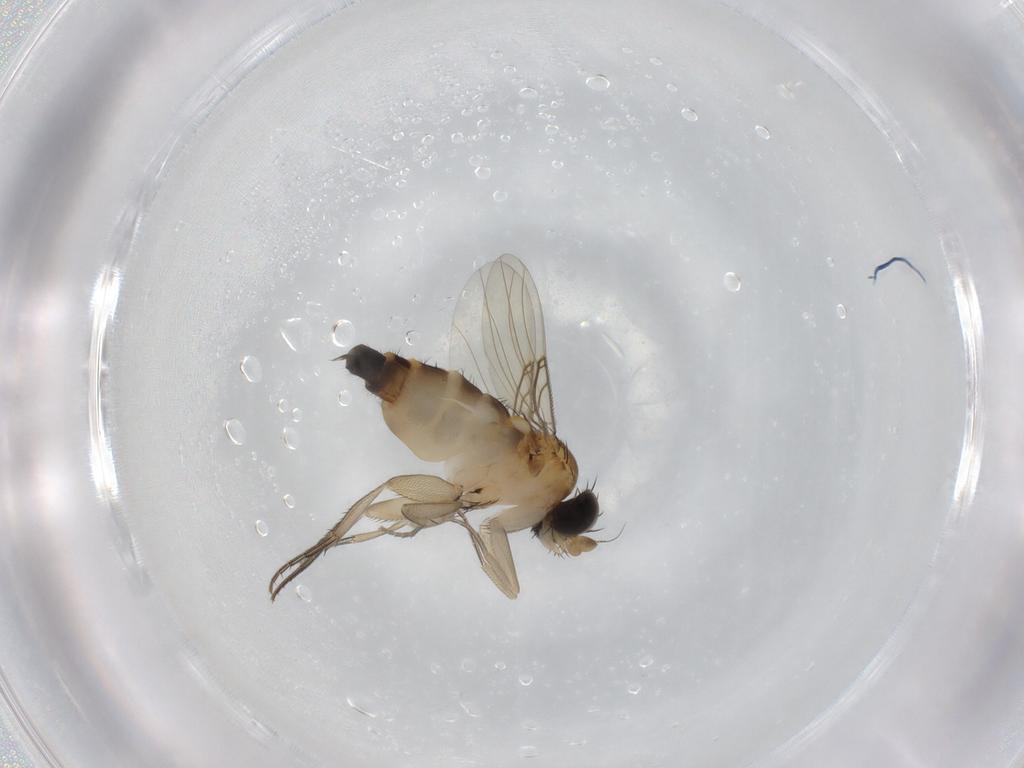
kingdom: Animalia
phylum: Arthropoda
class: Insecta
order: Diptera
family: Phoridae
